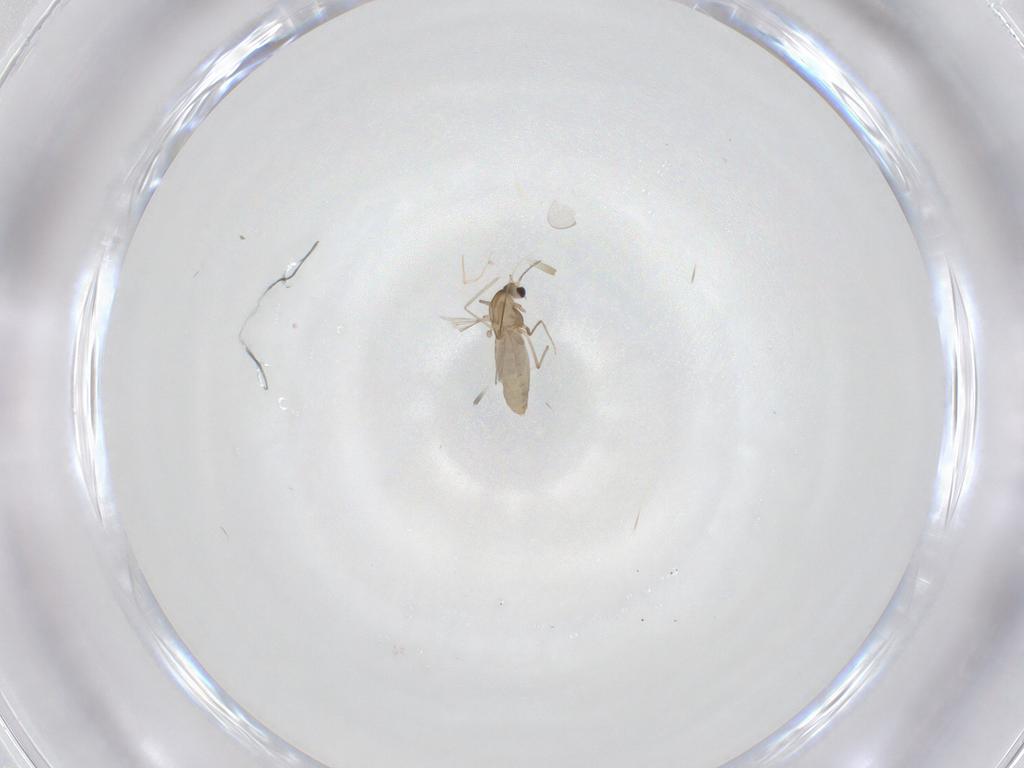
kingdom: Animalia
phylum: Arthropoda
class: Insecta
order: Diptera
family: Chironomidae
